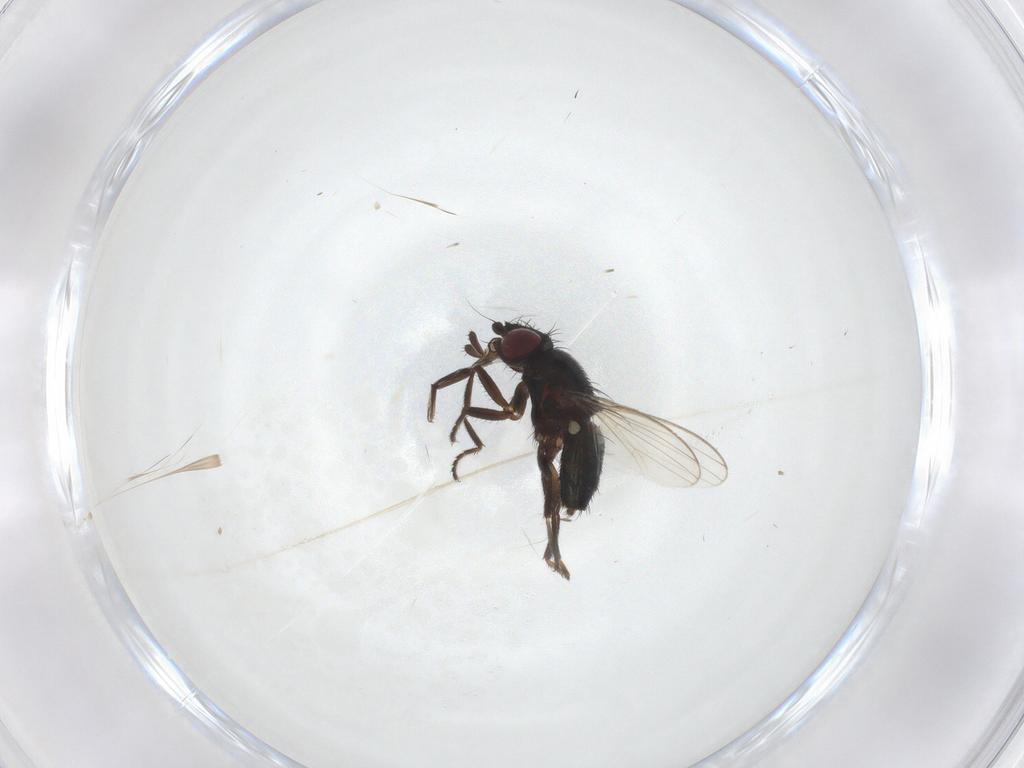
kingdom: Animalia
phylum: Arthropoda
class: Insecta
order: Diptera
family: Milichiidae
